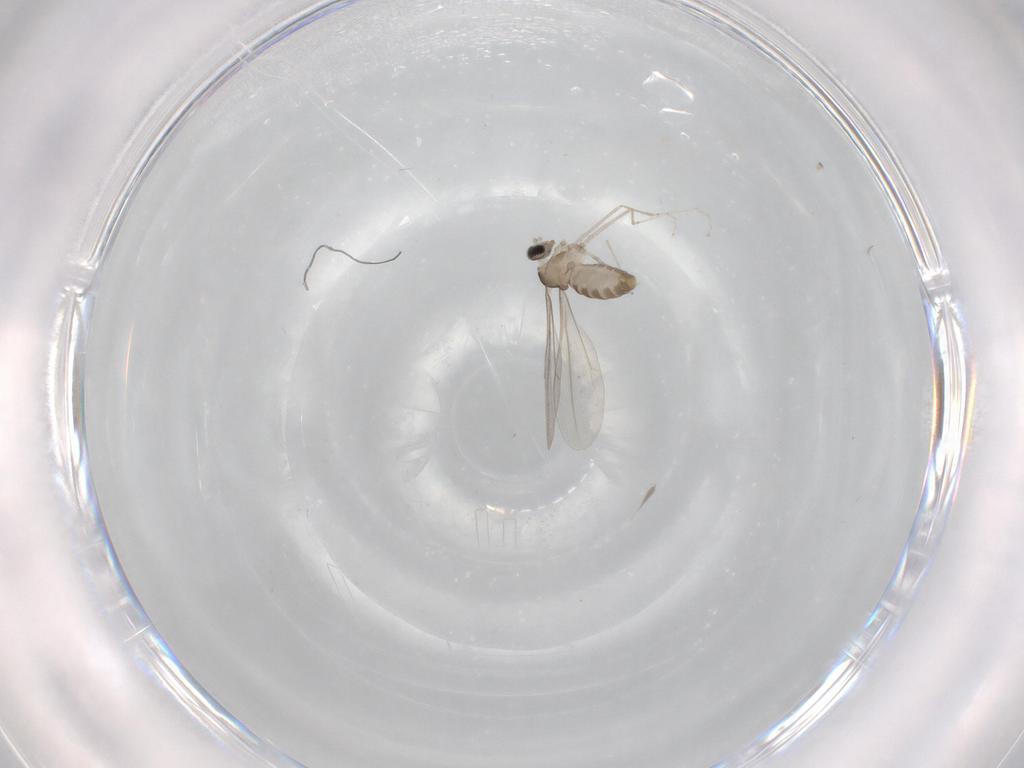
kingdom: Animalia
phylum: Arthropoda
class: Insecta
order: Diptera
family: Cecidomyiidae
